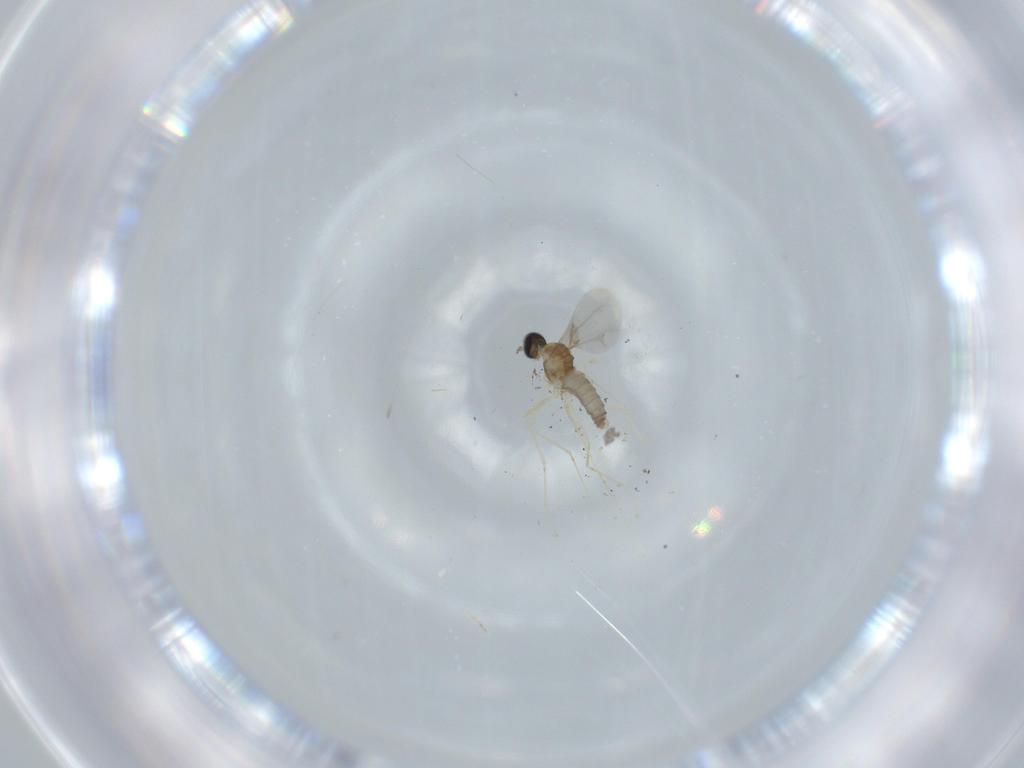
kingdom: Animalia
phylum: Arthropoda
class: Insecta
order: Diptera
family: Cecidomyiidae
